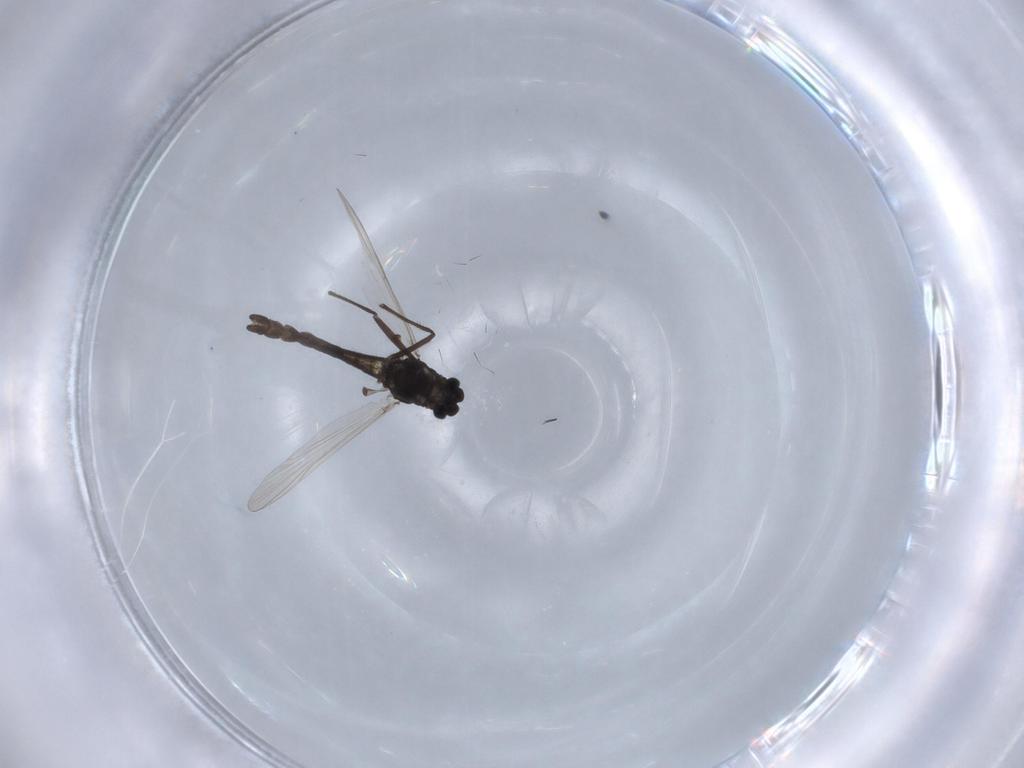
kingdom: Animalia
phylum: Arthropoda
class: Insecta
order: Diptera
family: Chironomidae
